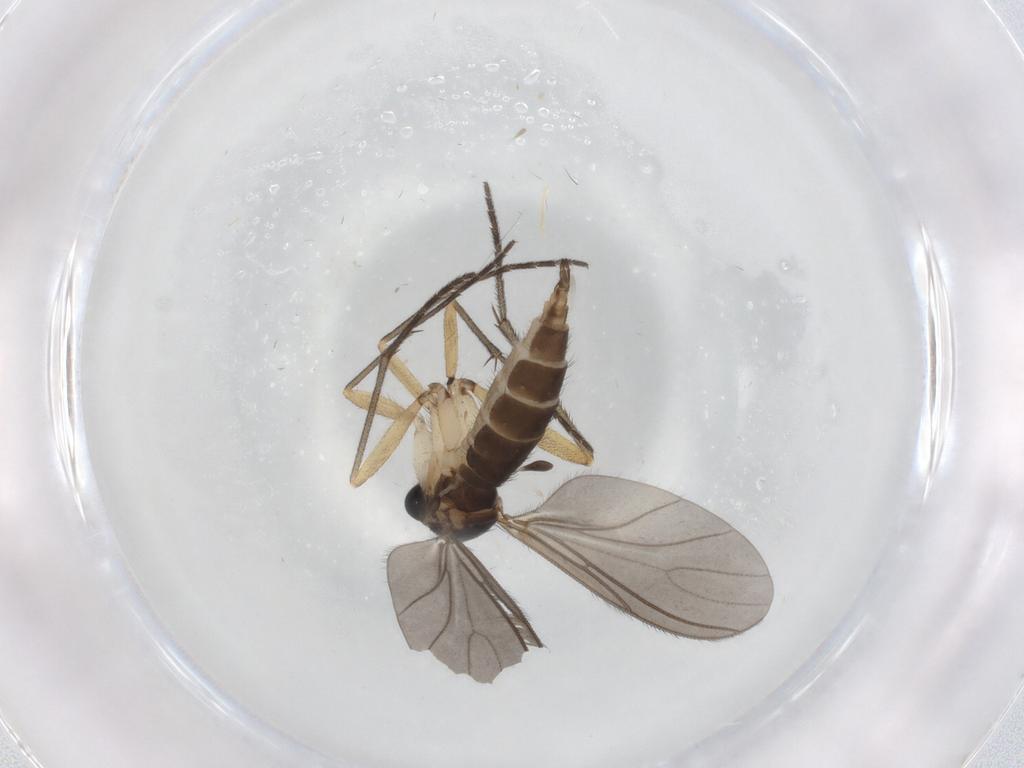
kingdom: Animalia
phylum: Arthropoda
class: Insecta
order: Diptera
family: Sciaridae
